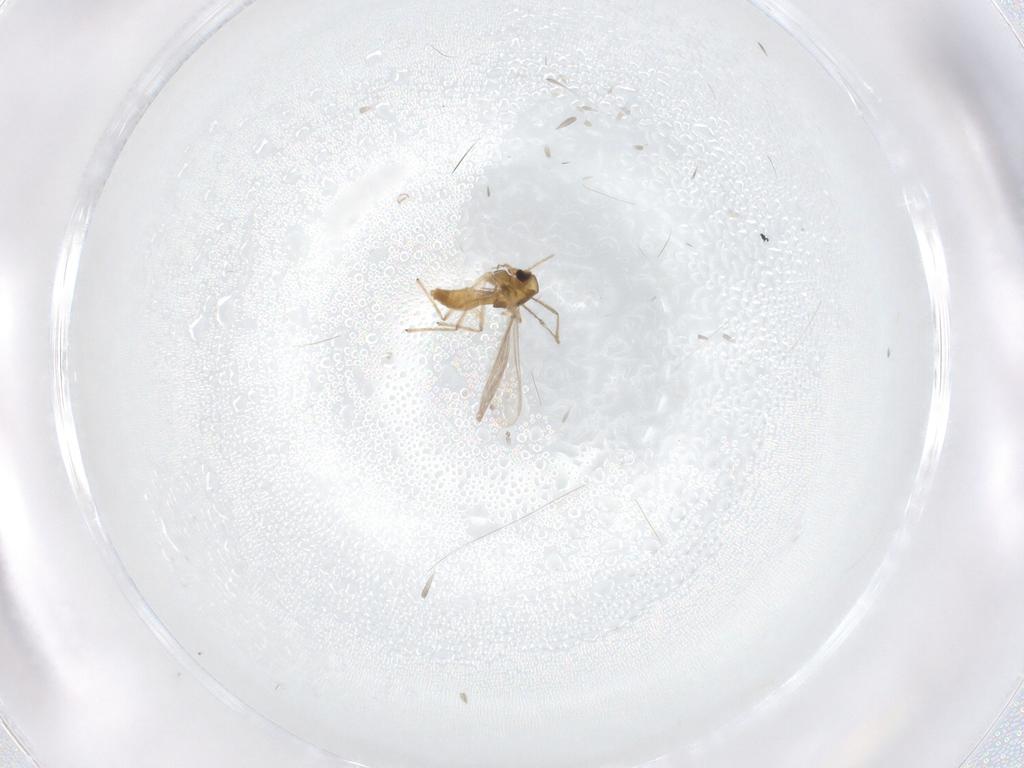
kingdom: Animalia
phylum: Arthropoda
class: Insecta
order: Diptera
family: Chironomidae
